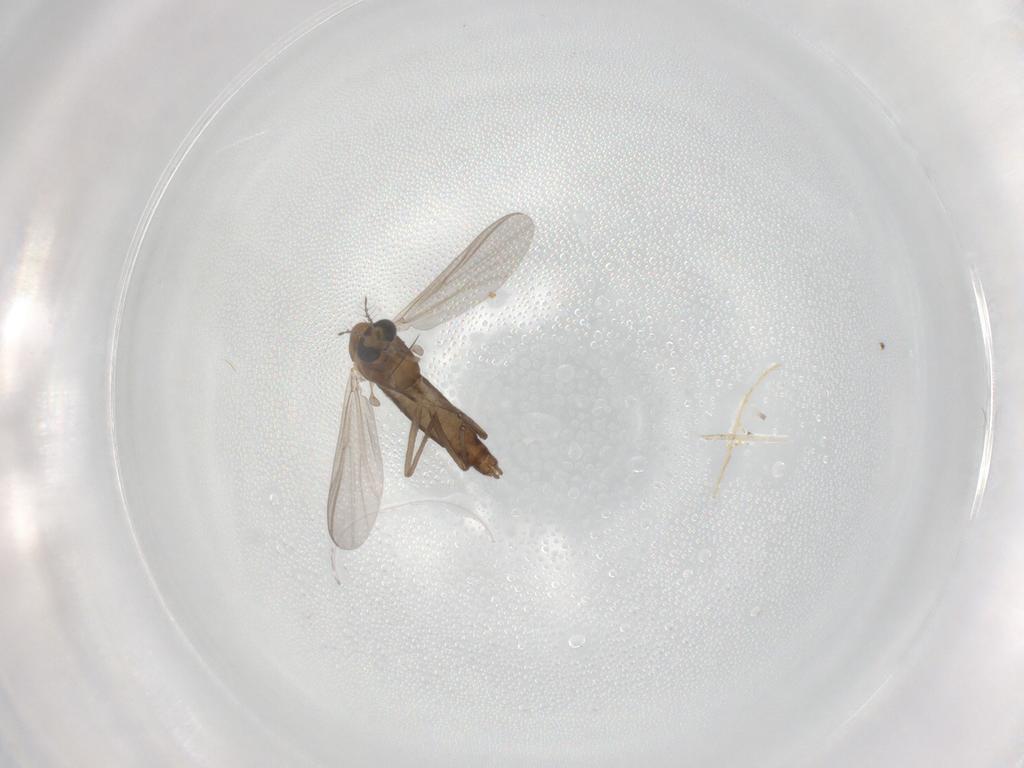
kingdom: Animalia
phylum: Arthropoda
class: Insecta
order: Diptera
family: Chironomidae
